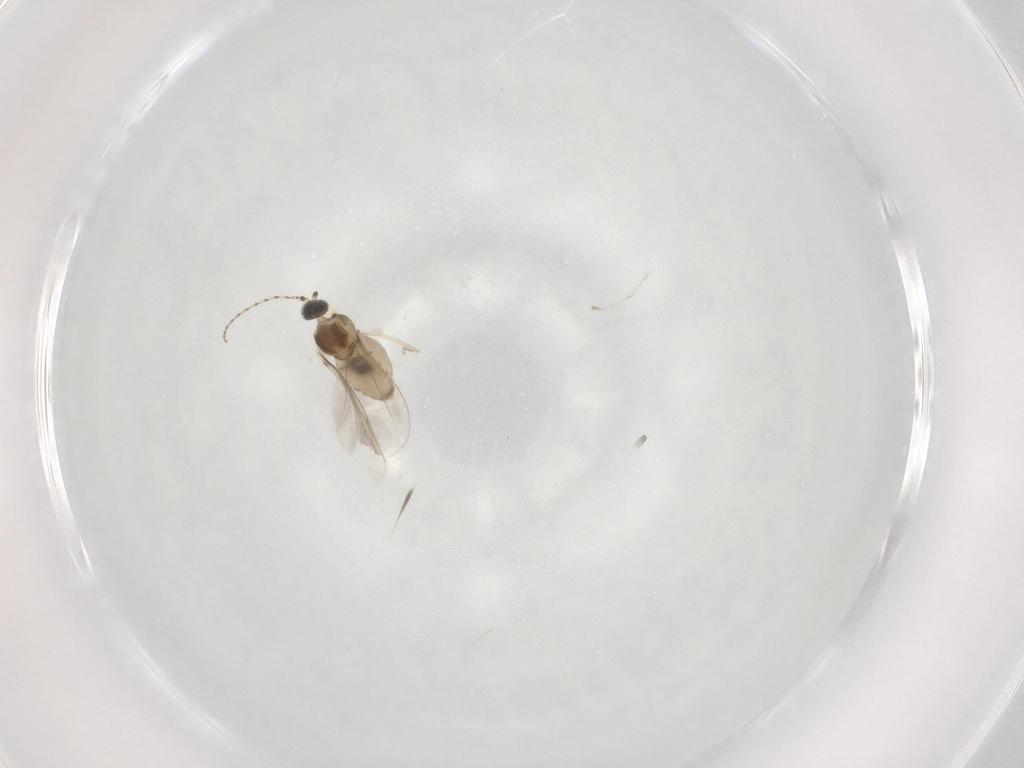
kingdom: Animalia
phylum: Arthropoda
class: Insecta
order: Diptera
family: Cecidomyiidae
